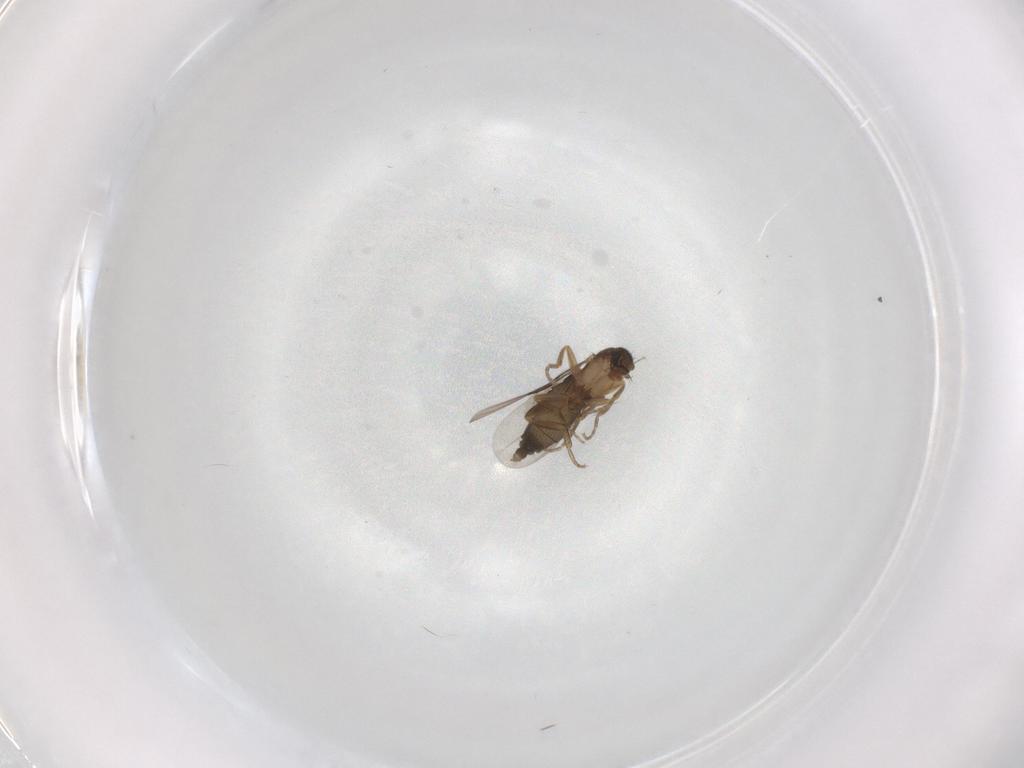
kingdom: Animalia
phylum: Arthropoda
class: Insecta
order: Diptera
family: Phoridae
